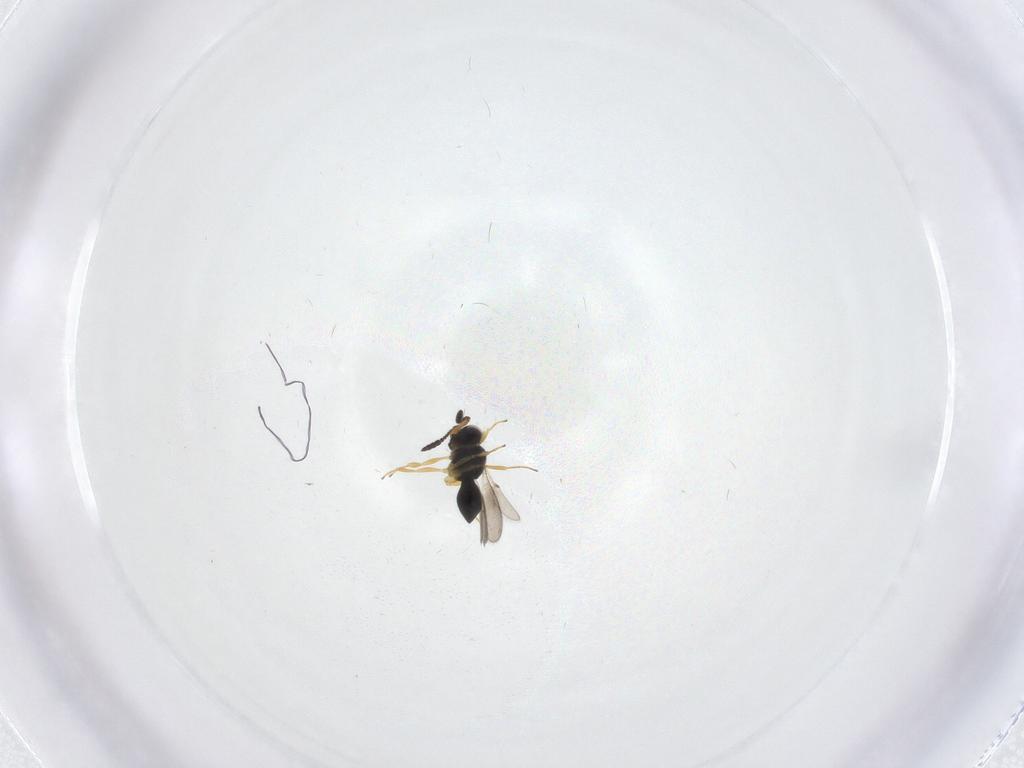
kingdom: Animalia
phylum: Arthropoda
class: Insecta
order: Hymenoptera
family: Scelionidae
